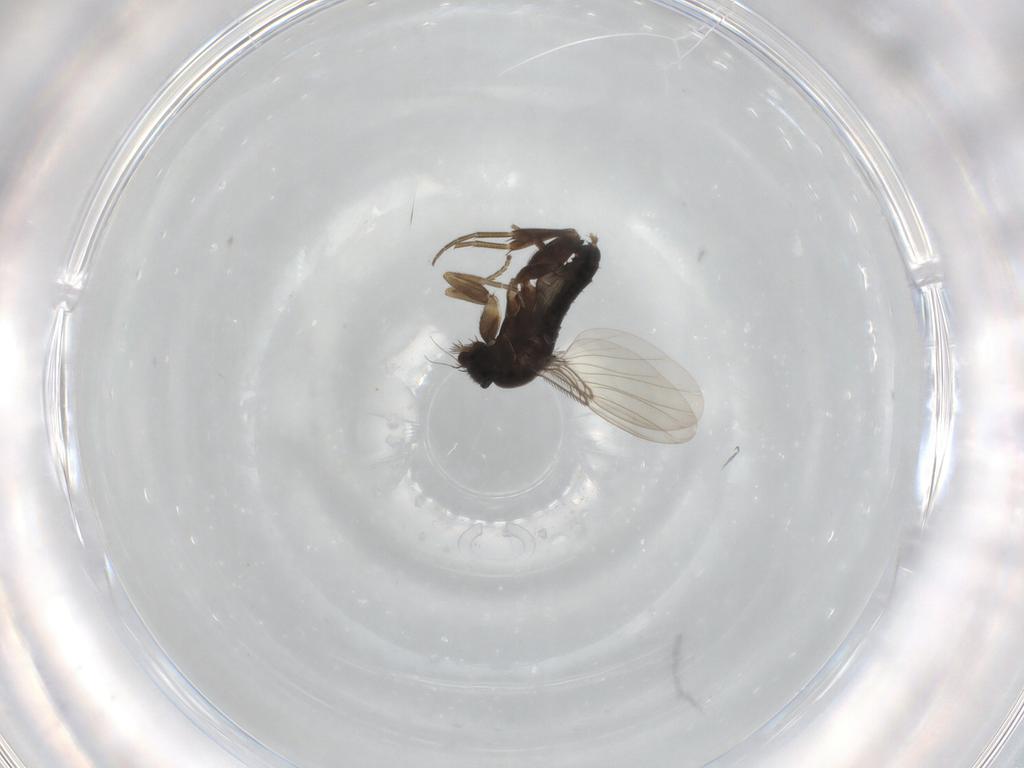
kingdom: Animalia
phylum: Arthropoda
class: Insecta
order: Diptera
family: Phoridae
